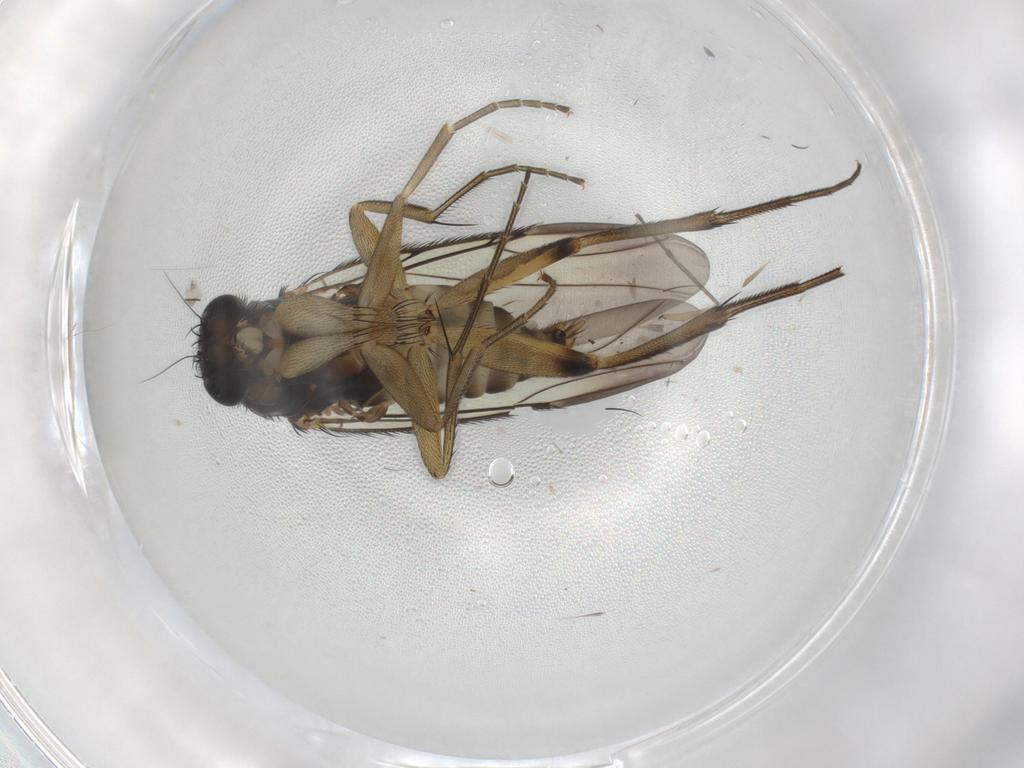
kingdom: Animalia
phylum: Arthropoda
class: Insecta
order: Diptera
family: Phoridae
